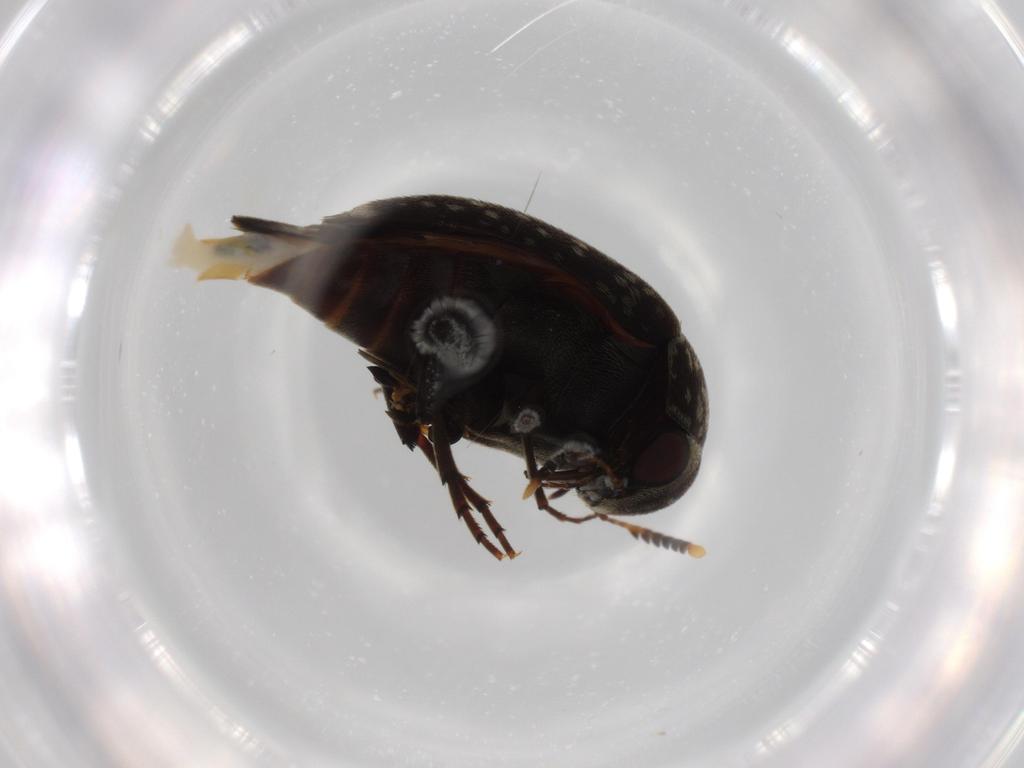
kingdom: Animalia
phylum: Arthropoda
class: Insecta
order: Coleoptera
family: Mordellidae
